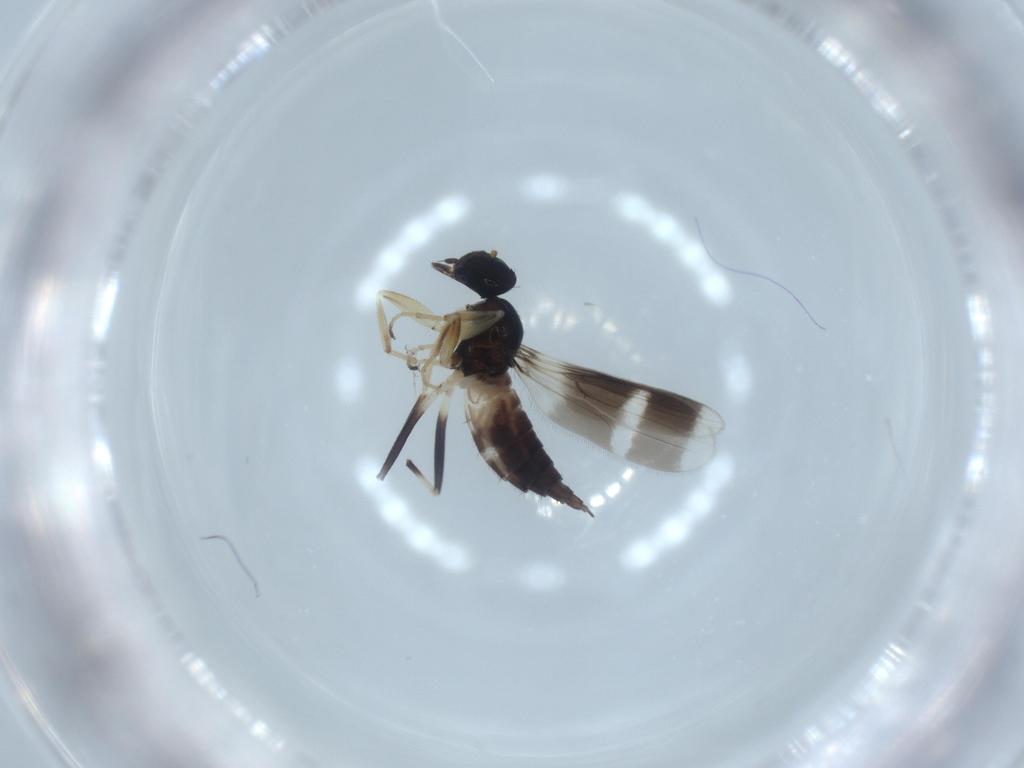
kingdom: Animalia
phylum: Arthropoda
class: Insecta
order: Diptera
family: Hybotidae
